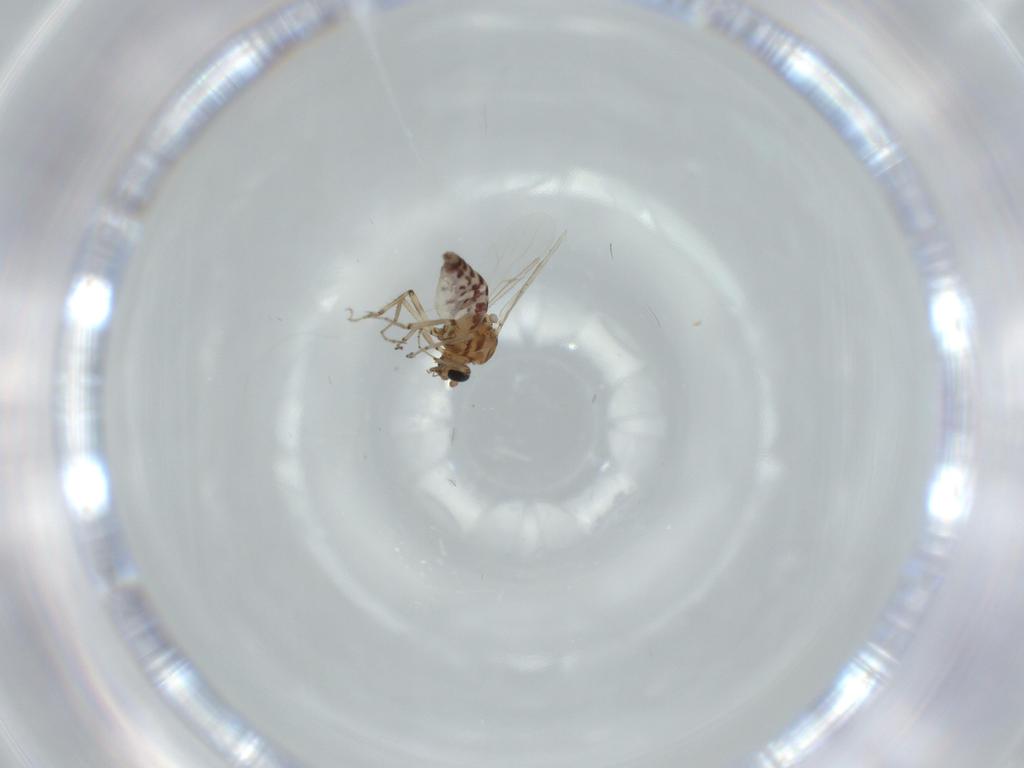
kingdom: Animalia
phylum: Arthropoda
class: Insecta
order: Diptera
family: Ceratopogonidae
